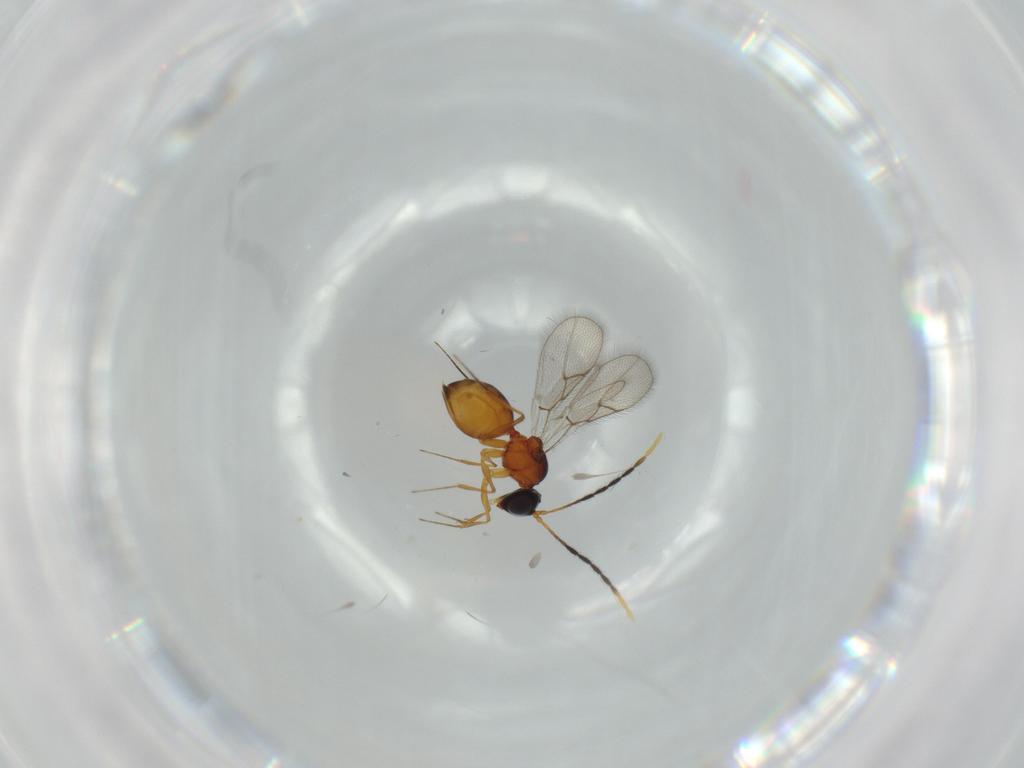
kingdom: Animalia
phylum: Arthropoda
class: Insecta
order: Hymenoptera
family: Figitidae
